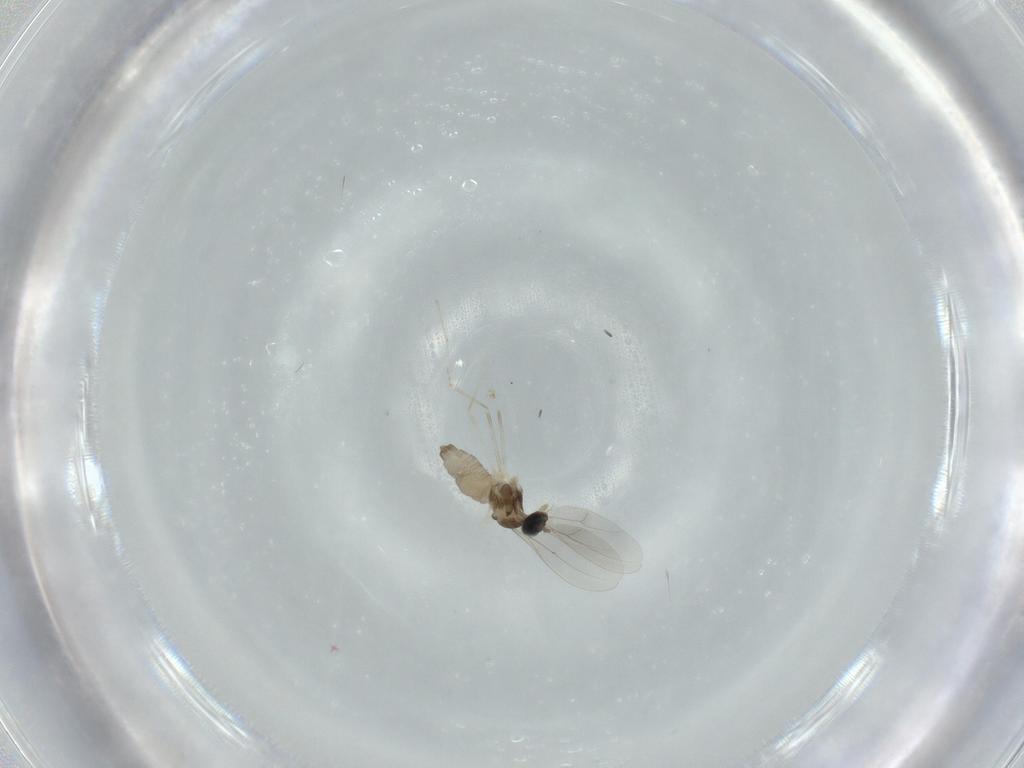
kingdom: Animalia
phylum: Arthropoda
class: Insecta
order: Diptera
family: Cecidomyiidae
